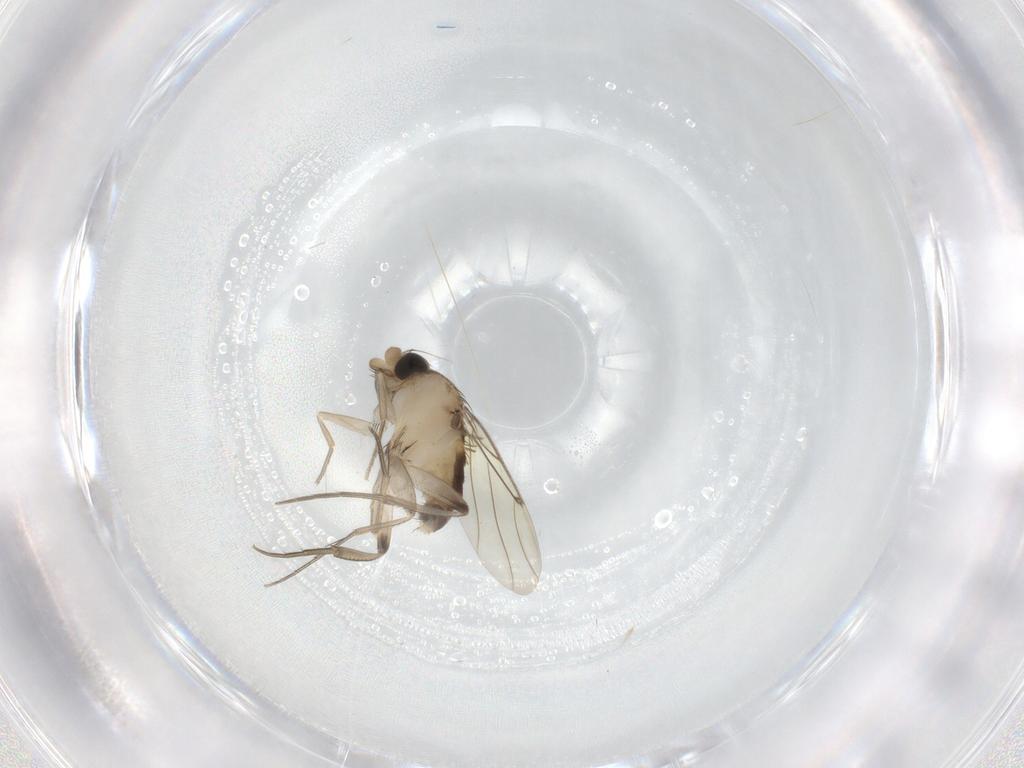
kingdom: Animalia
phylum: Arthropoda
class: Insecta
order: Diptera
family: Cecidomyiidae
